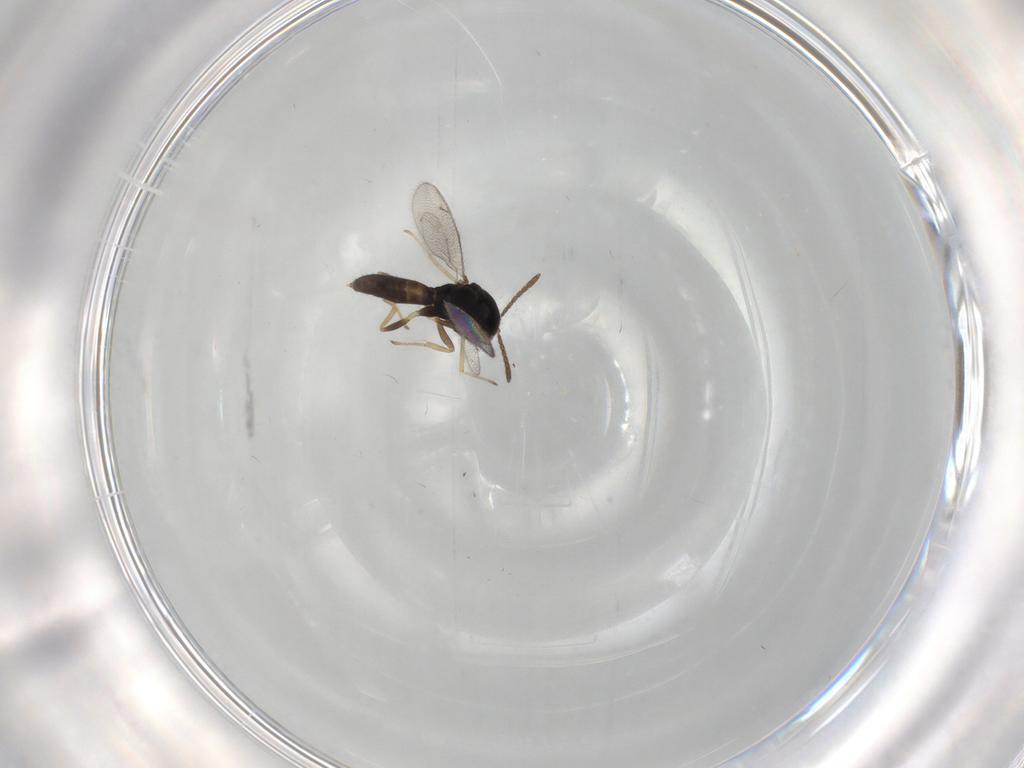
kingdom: Animalia
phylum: Arthropoda
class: Insecta
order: Hymenoptera
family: Pteromalidae
